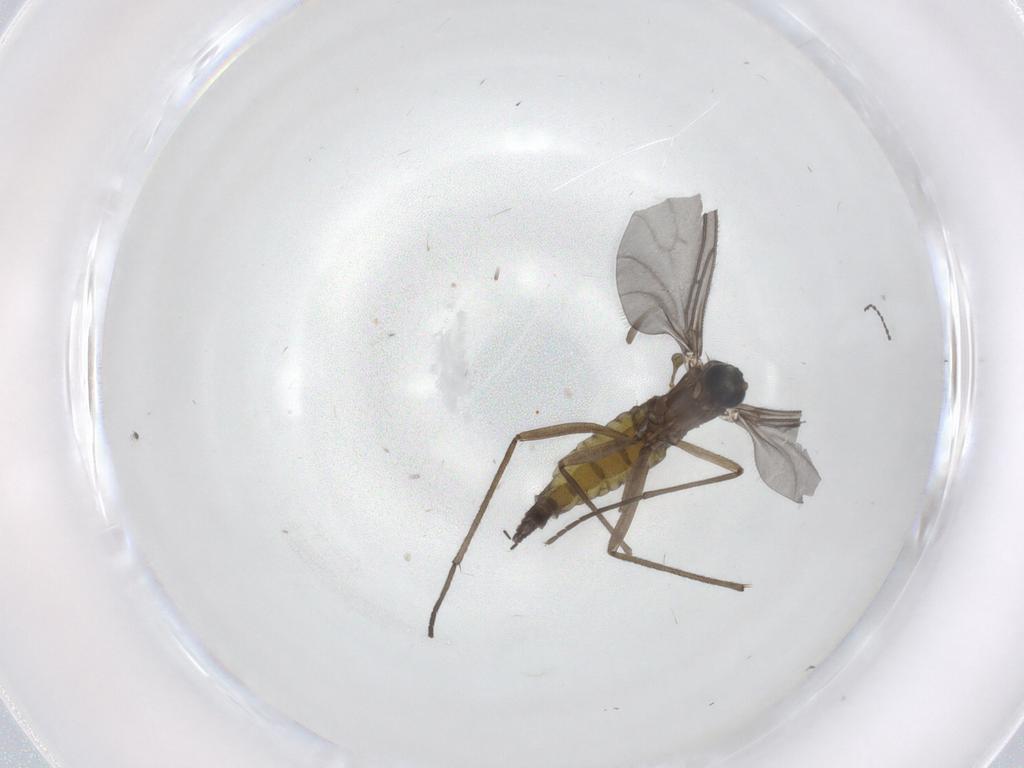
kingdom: Animalia
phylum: Arthropoda
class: Insecta
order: Diptera
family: Sciaridae
